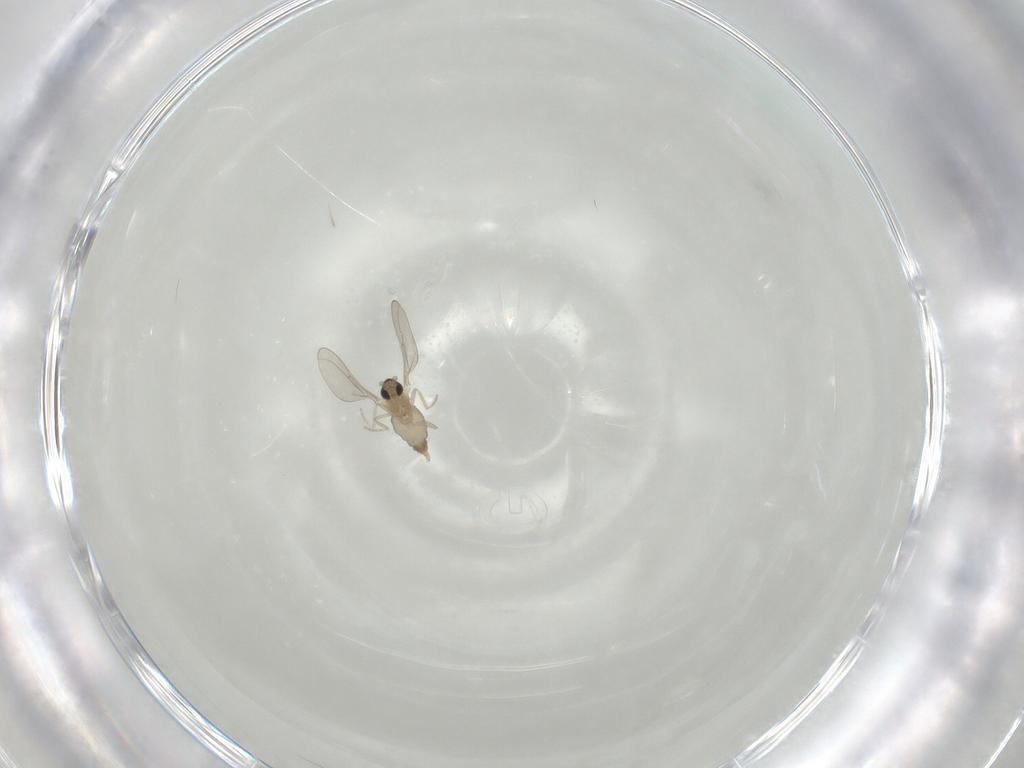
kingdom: Animalia
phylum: Arthropoda
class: Insecta
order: Diptera
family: Cecidomyiidae
